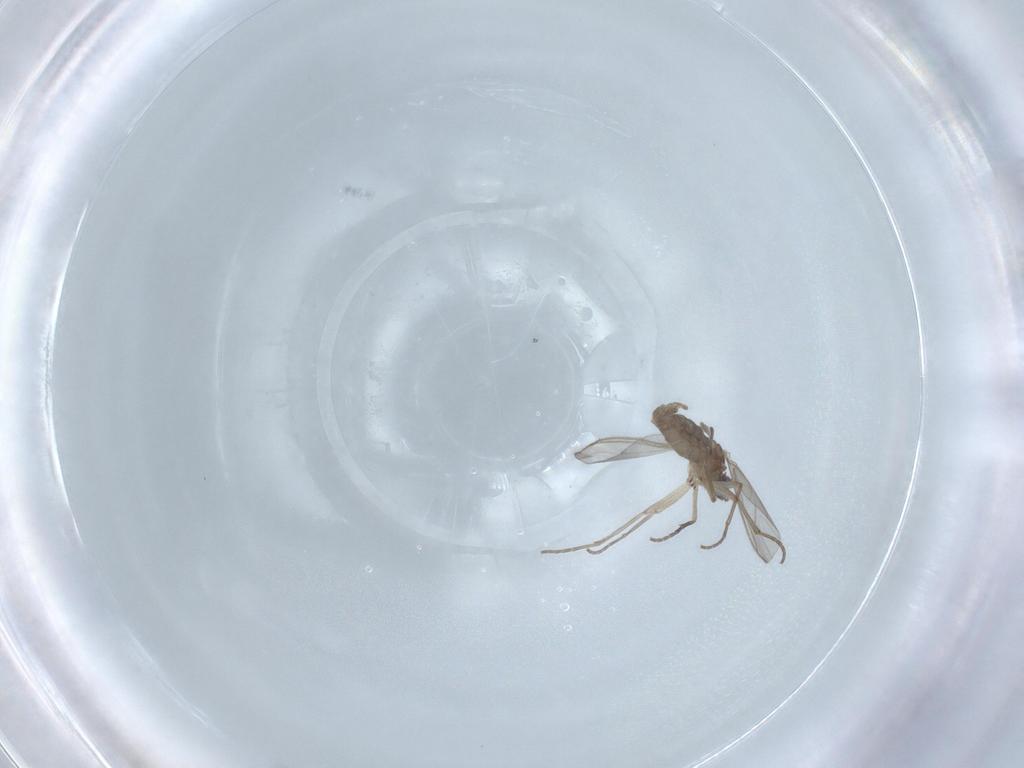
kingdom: Animalia
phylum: Arthropoda
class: Insecta
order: Diptera
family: Sciaridae
